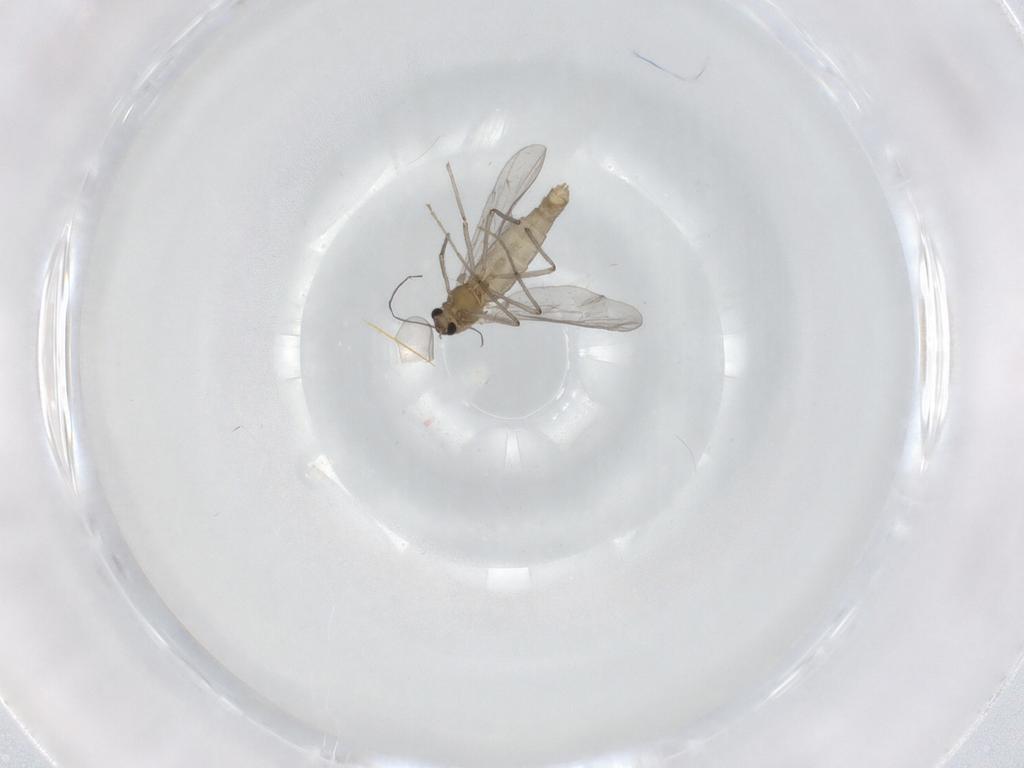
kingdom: Animalia
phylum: Arthropoda
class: Insecta
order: Diptera
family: Chironomidae
